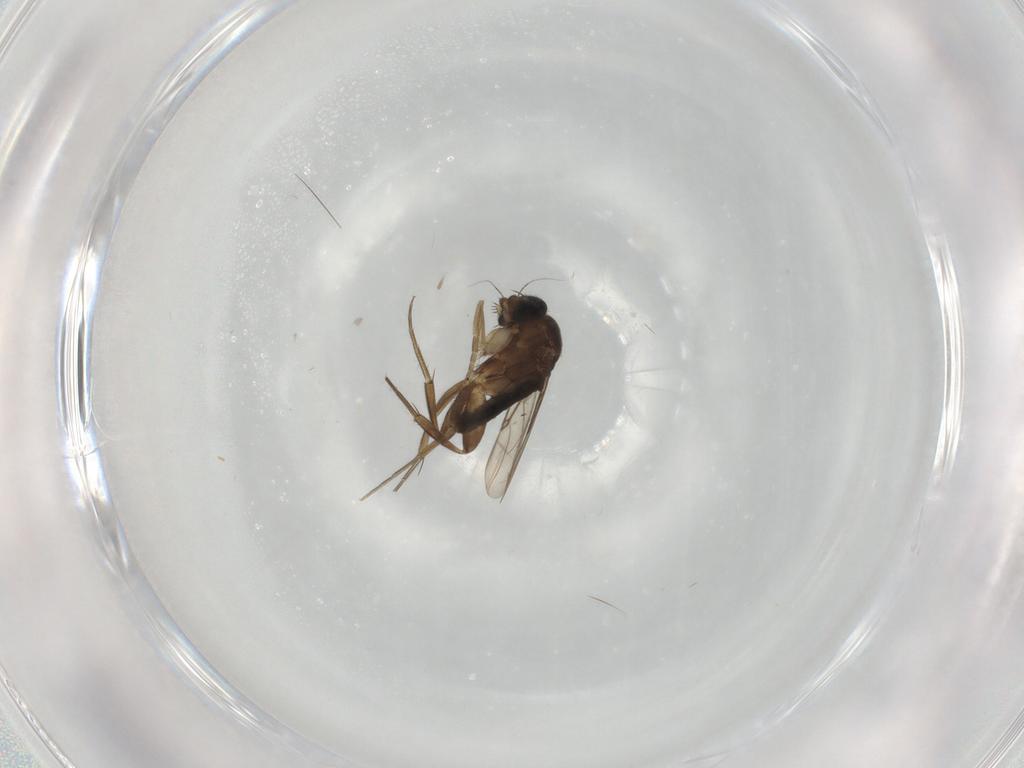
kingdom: Animalia
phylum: Arthropoda
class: Insecta
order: Diptera
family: Phoridae
